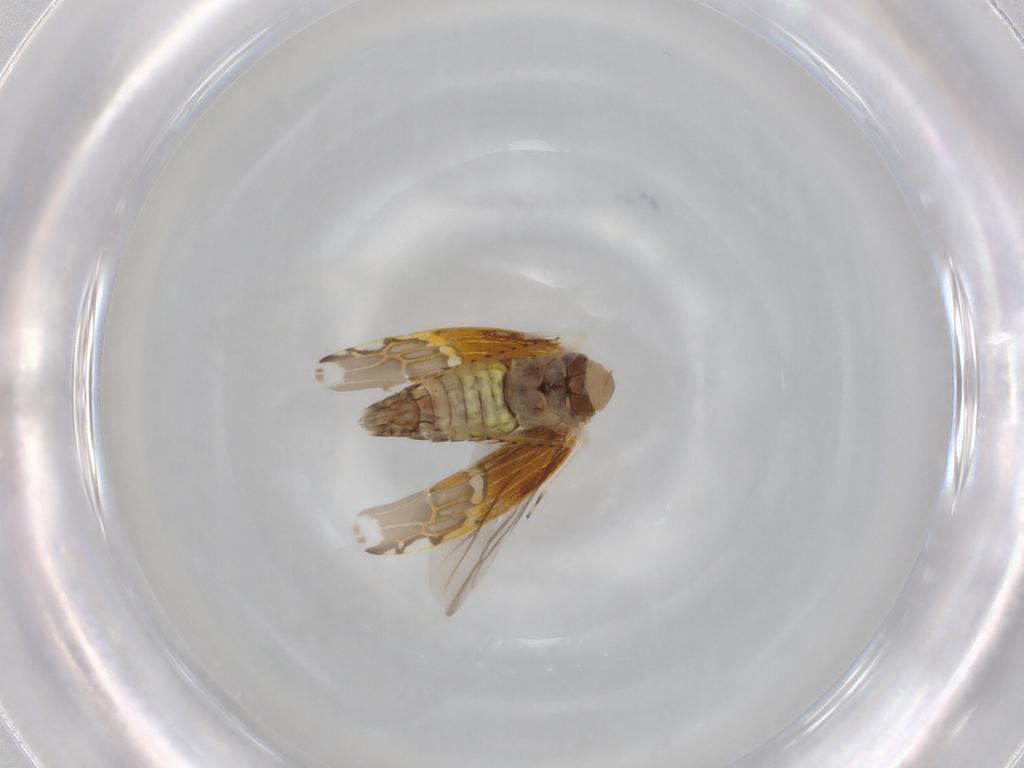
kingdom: Animalia
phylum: Arthropoda
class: Insecta
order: Hemiptera
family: Cicadellidae
